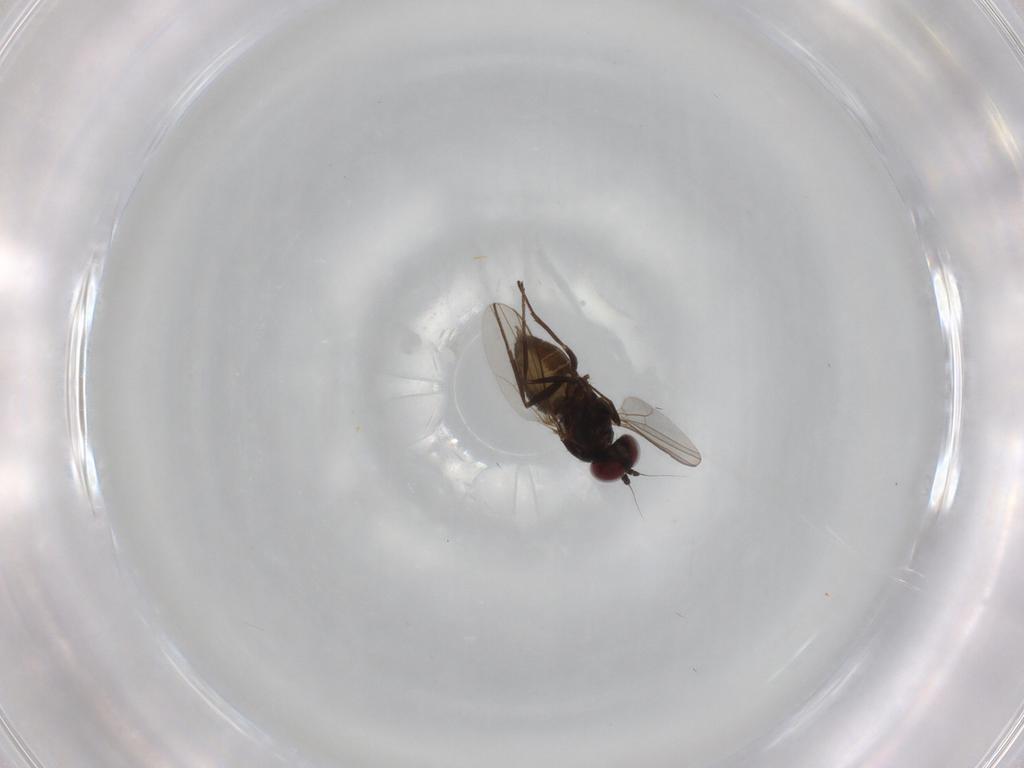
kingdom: Animalia
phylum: Arthropoda
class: Insecta
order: Diptera
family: Dolichopodidae
